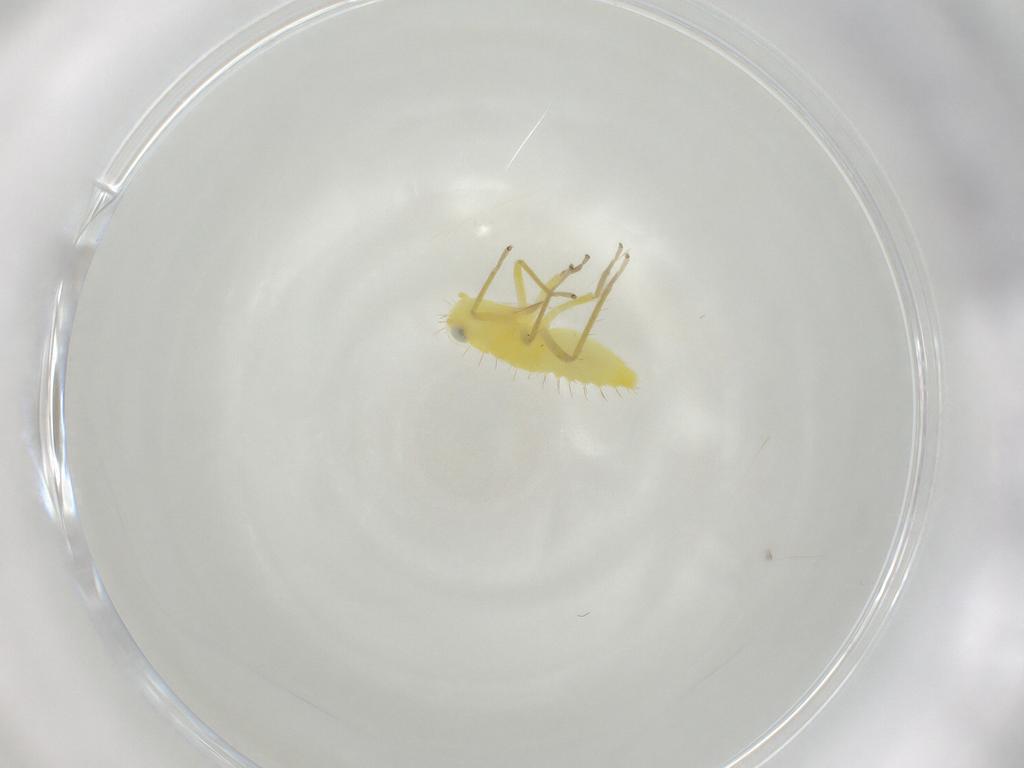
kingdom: Animalia
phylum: Arthropoda
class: Insecta
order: Hemiptera
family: Cicadellidae
